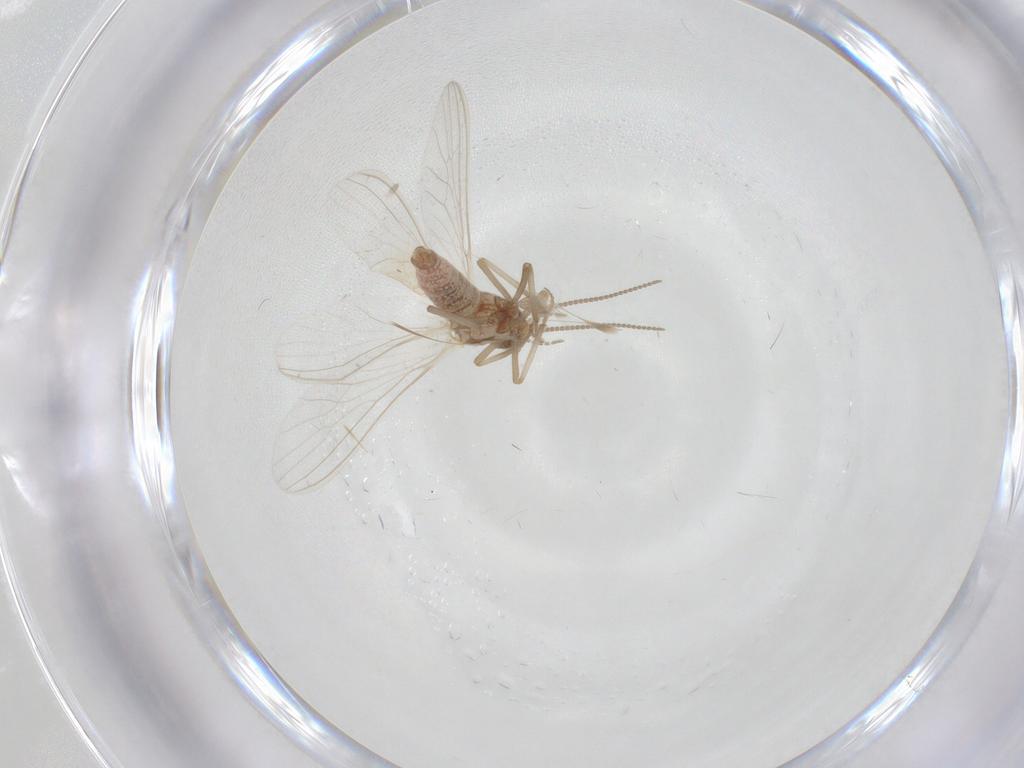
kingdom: Animalia
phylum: Arthropoda
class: Insecta
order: Neuroptera
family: Coniopterygidae
